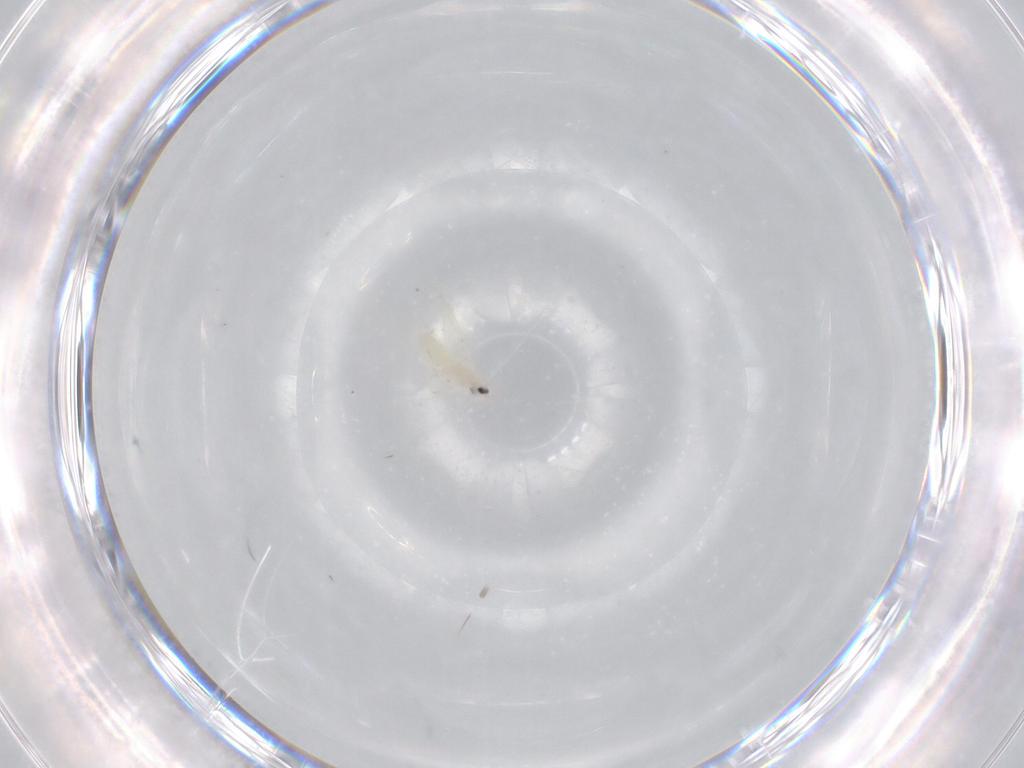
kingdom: Animalia
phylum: Arthropoda
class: Insecta
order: Hemiptera
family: Aleyrodidae
